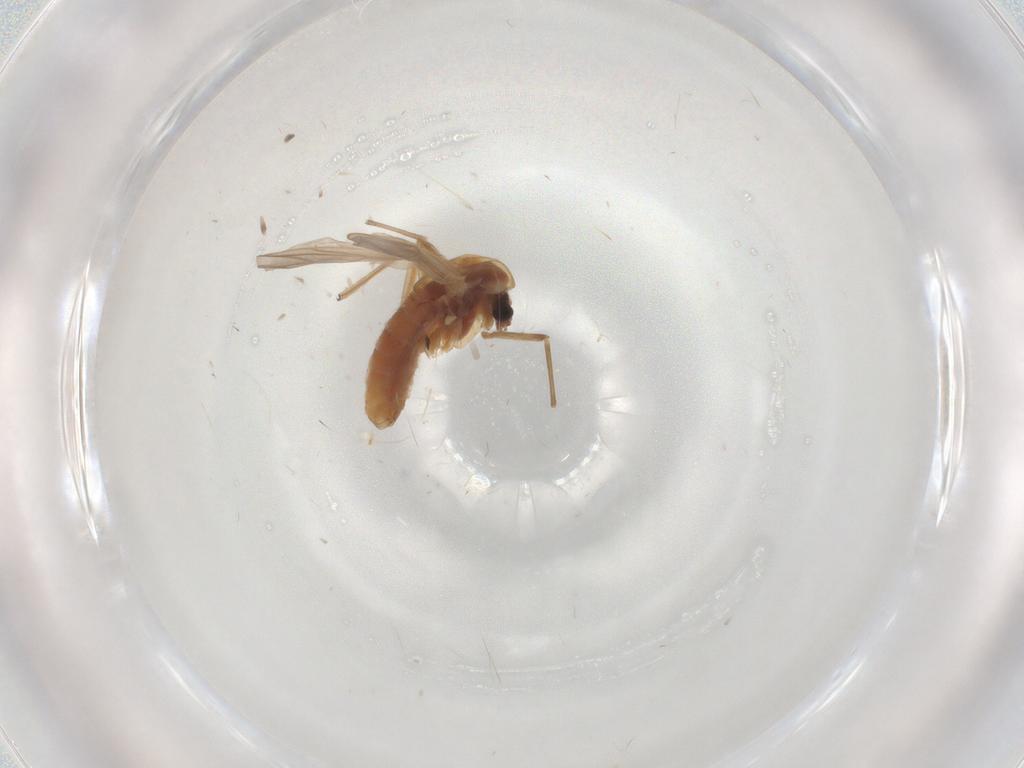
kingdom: Animalia
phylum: Arthropoda
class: Insecta
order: Diptera
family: Chironomidae
